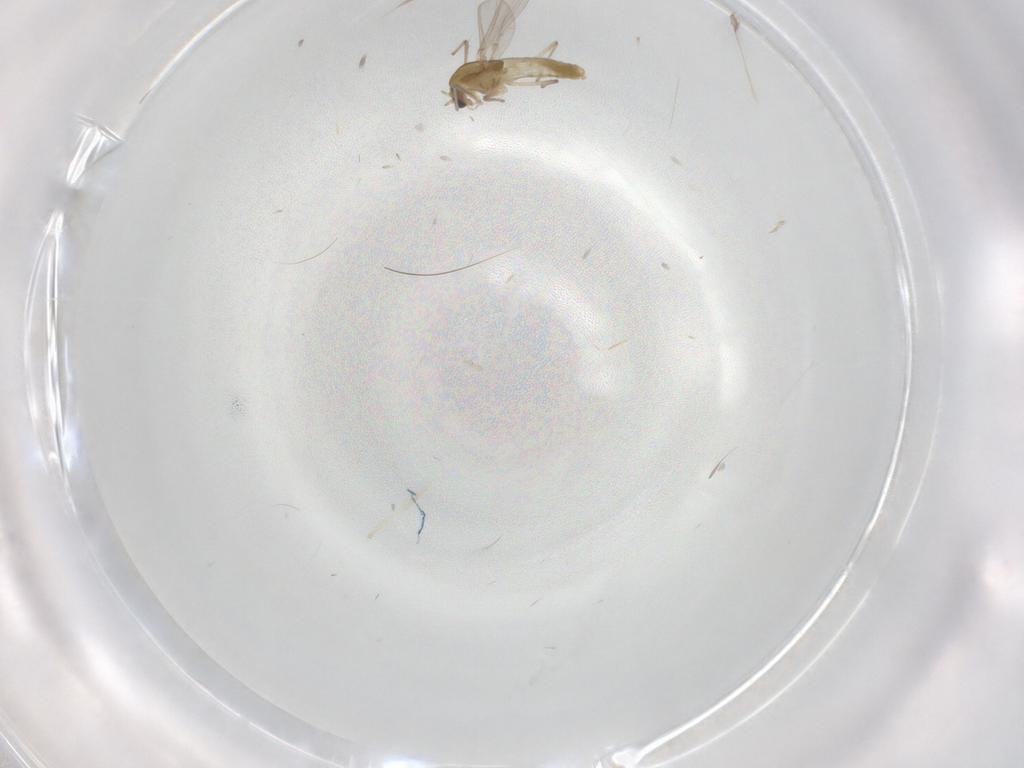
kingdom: Animalia
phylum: Arthropoda
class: Insecta
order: Diptera
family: Chironomidae
